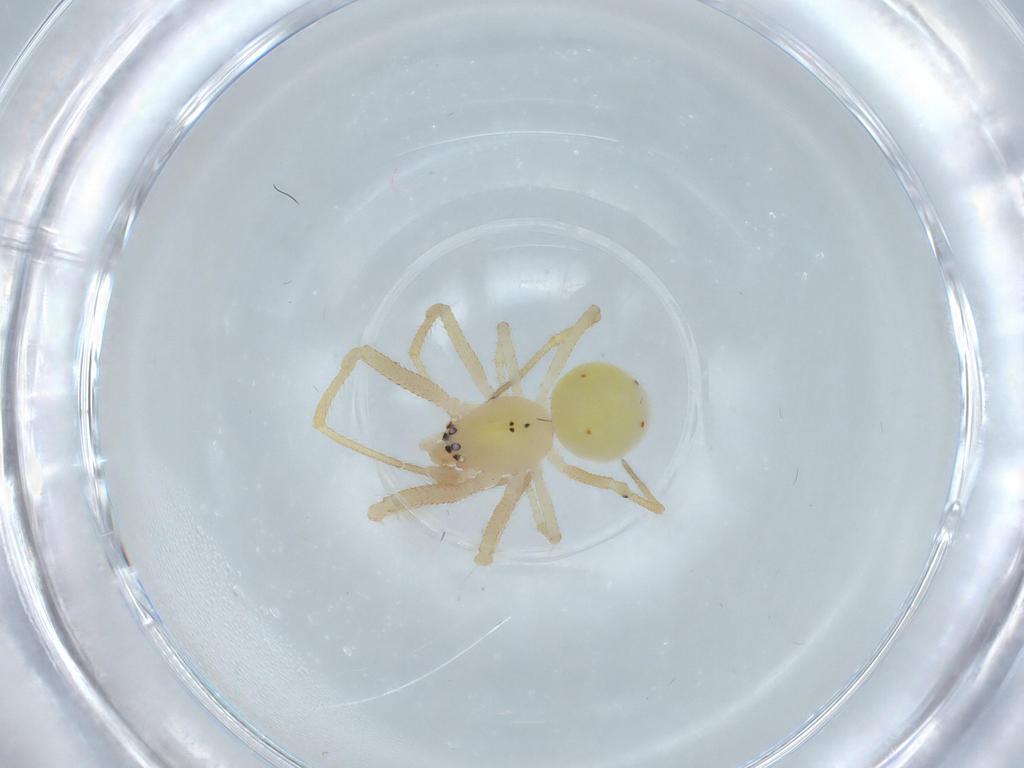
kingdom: Animalia
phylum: Arthropoda
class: Arachnida
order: Araneae
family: Theridiidae
